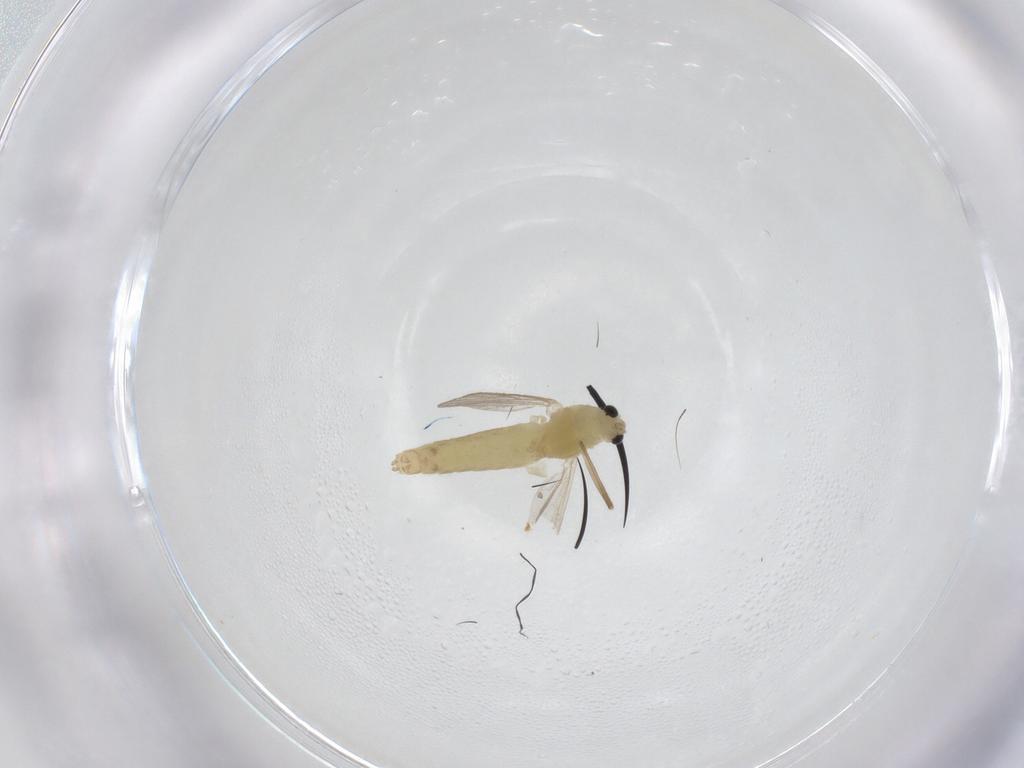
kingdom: Animalia
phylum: Arthropoda
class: Insecta
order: Diptera
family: Chironomidae
